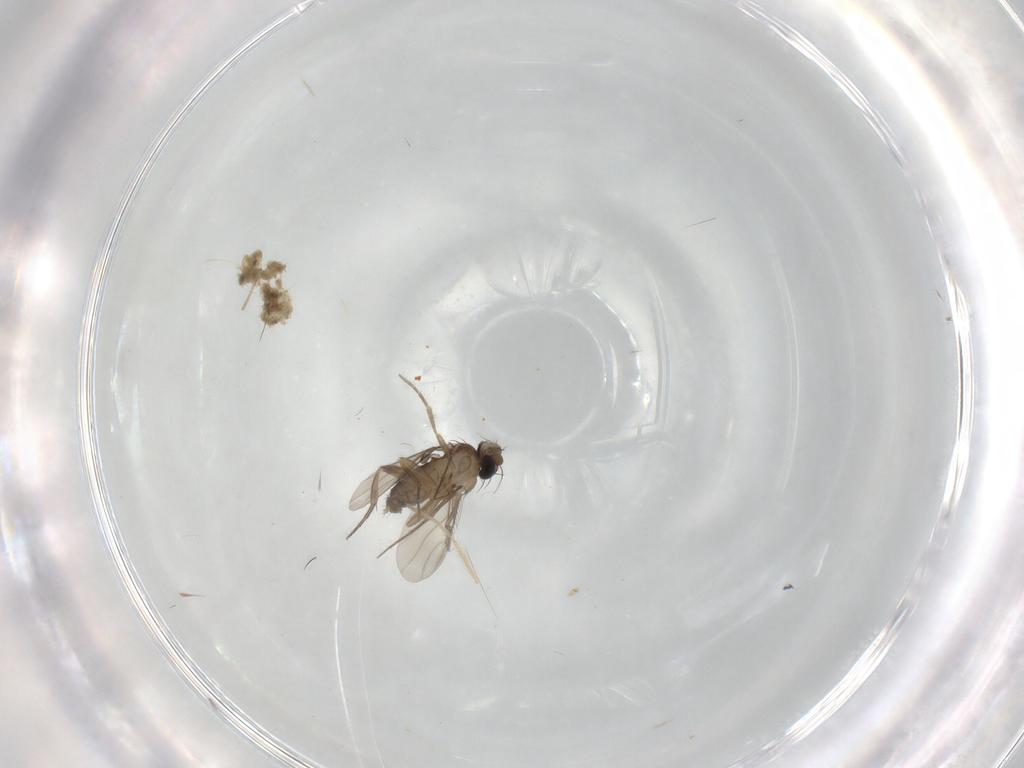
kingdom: Animalia
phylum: Arthropoda
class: Insecta
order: Diptera
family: Phoridae
